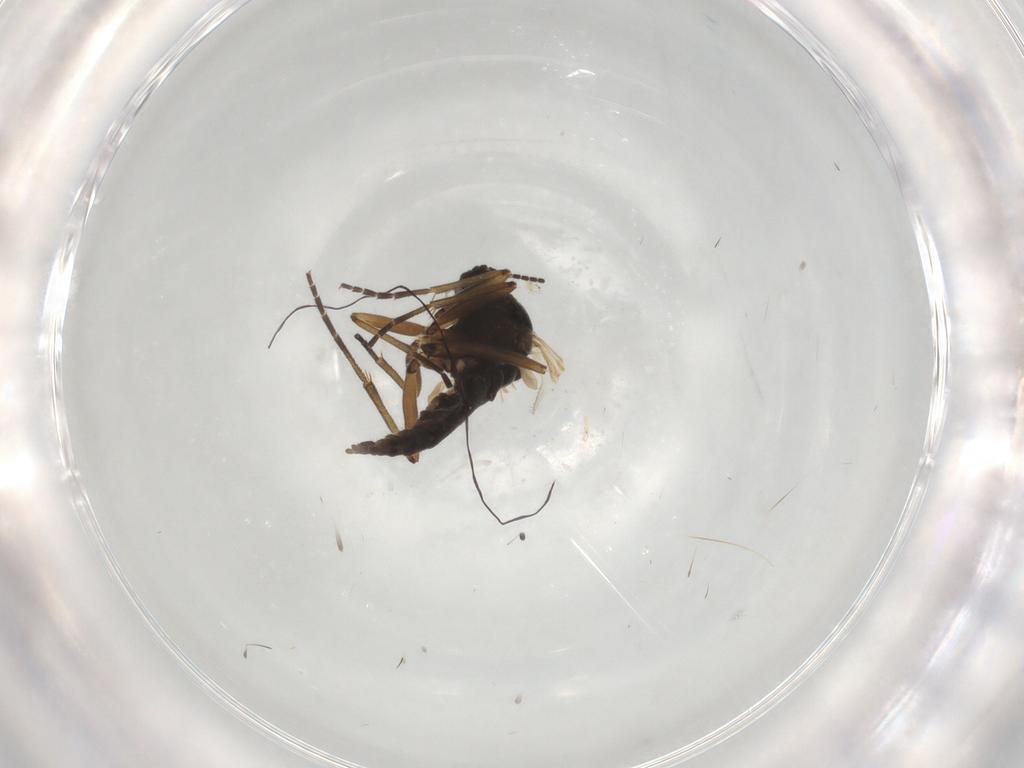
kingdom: Animalia
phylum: Arthropoda
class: Insecta
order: Diptera
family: Sciaridae
